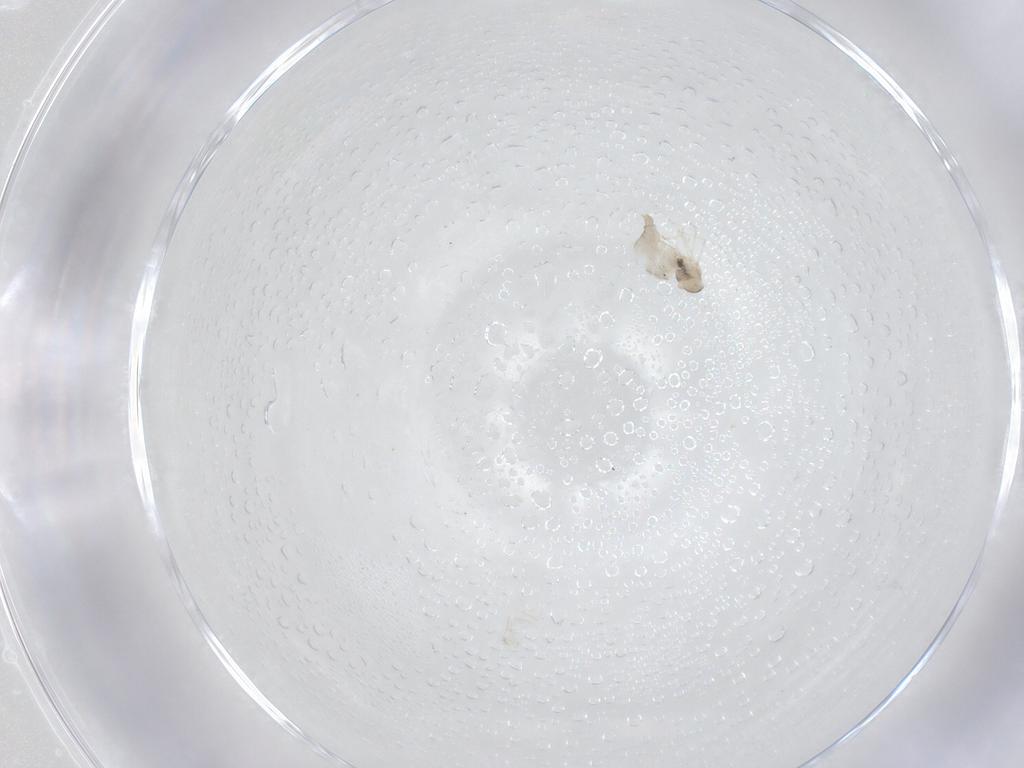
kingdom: Animalia
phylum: Arthropoda
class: Insecta
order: Diptera
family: Cecidomyiidae
